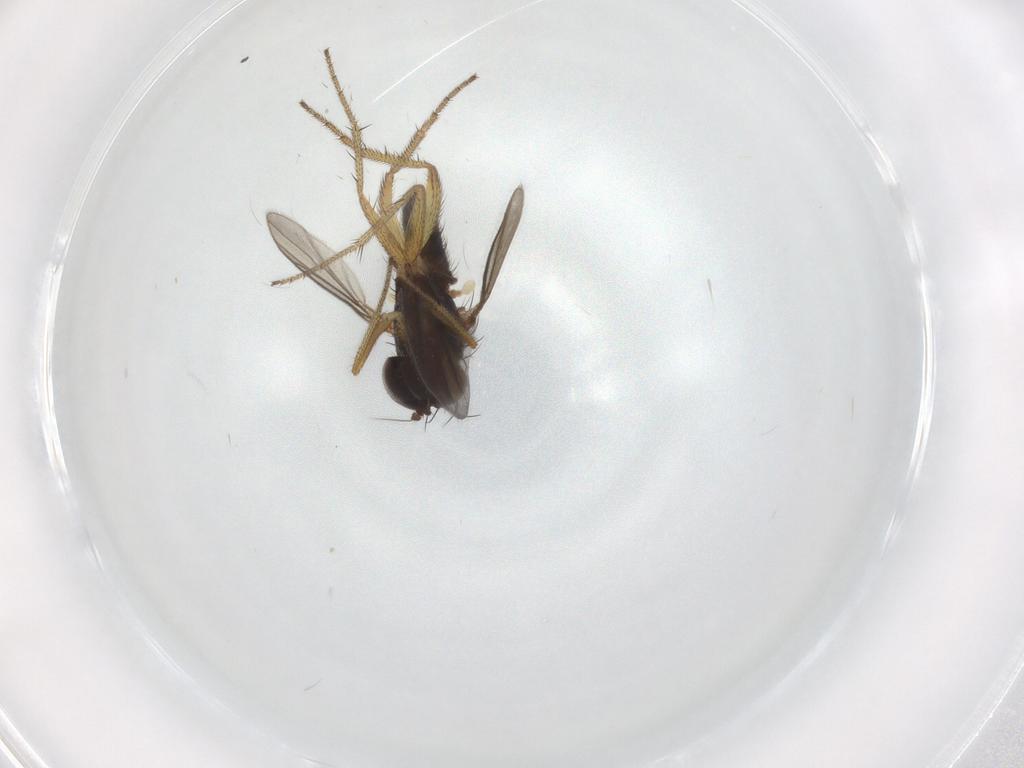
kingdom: Animalia
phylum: Arthropoda
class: Insecta
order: Diptera
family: Sciaridae
